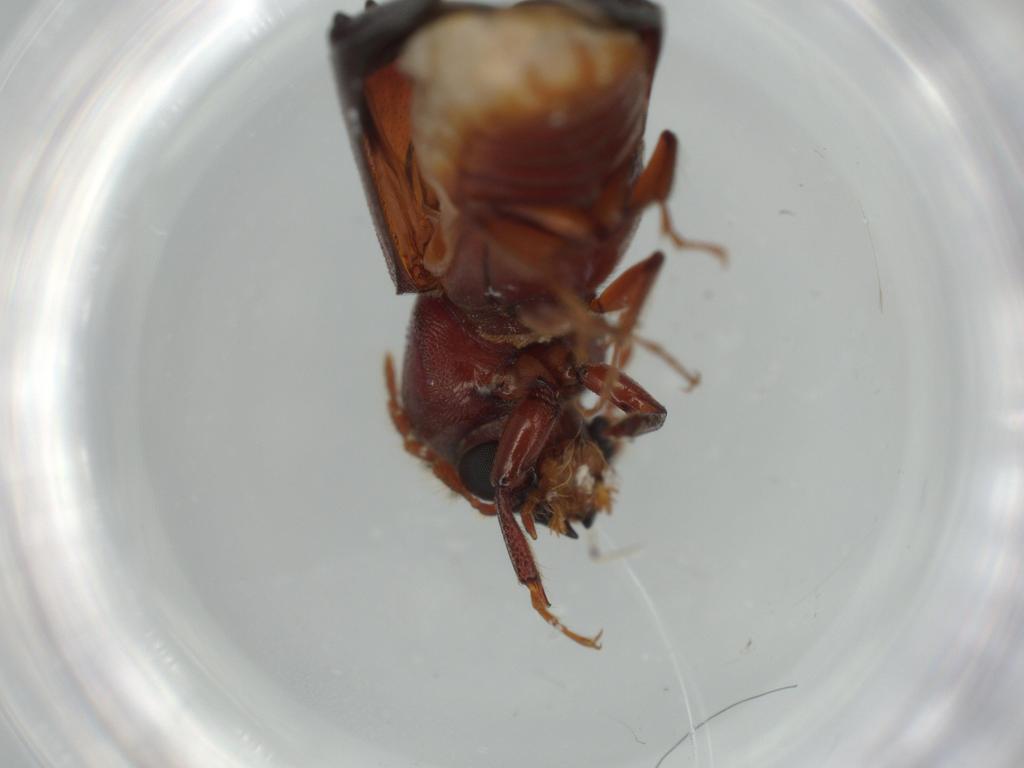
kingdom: Animalia
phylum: Arthropoda
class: Insecta
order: Coleoptera
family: Bostrichidae
